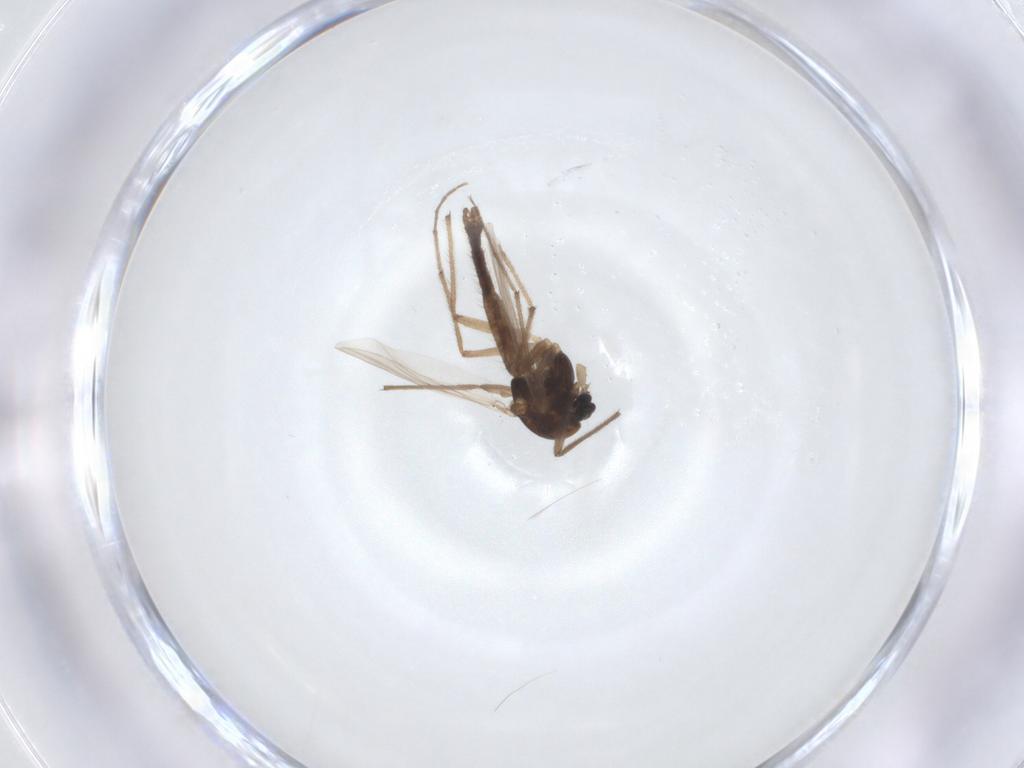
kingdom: Animalia
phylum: Arthropoda
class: Insecta
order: Diptera
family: Chironomidae
